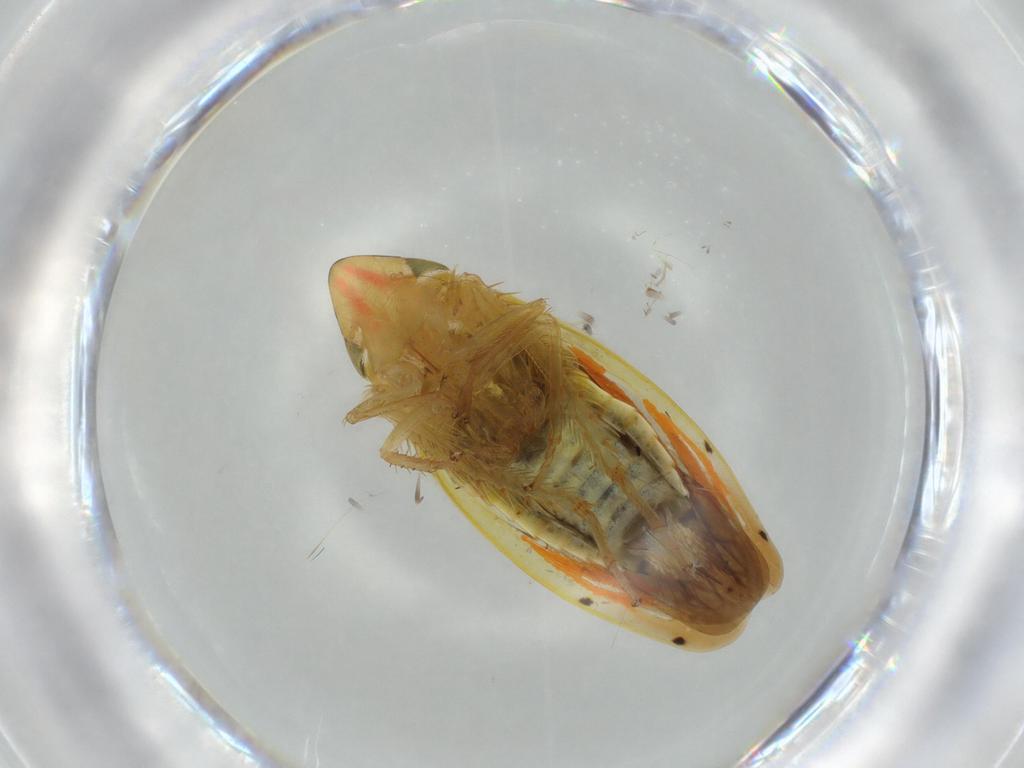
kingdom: Animalia
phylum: Arthropoda
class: Insecta
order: Hemiptera
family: Cicadellidae
